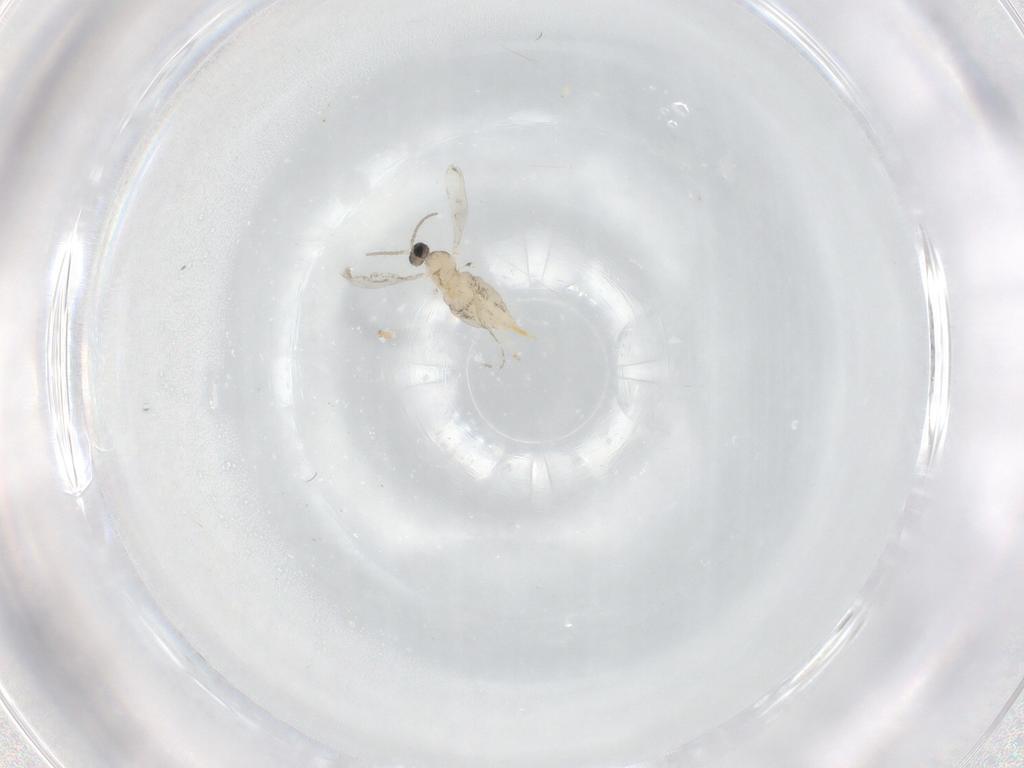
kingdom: Animalia
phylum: Arthropoda
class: Insecta
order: Diptera
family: Cecidomyiidae
